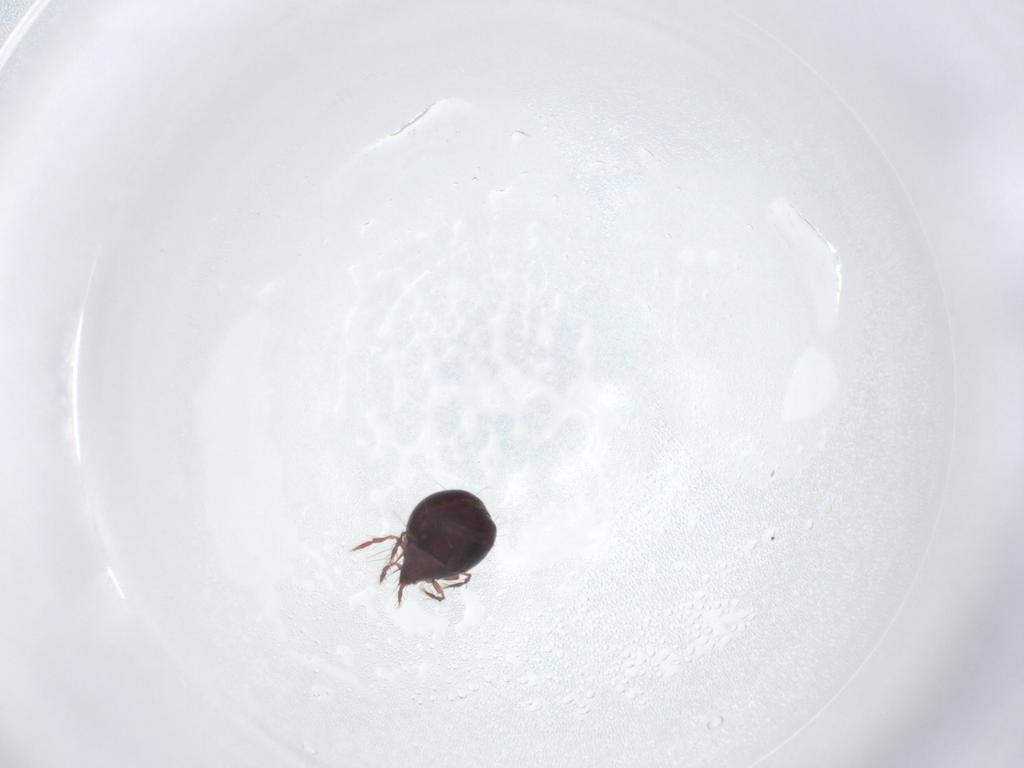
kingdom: Animalia
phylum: Arthropoda
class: Arachnida
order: Sarcoptiformes
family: Ceratoppiidae
